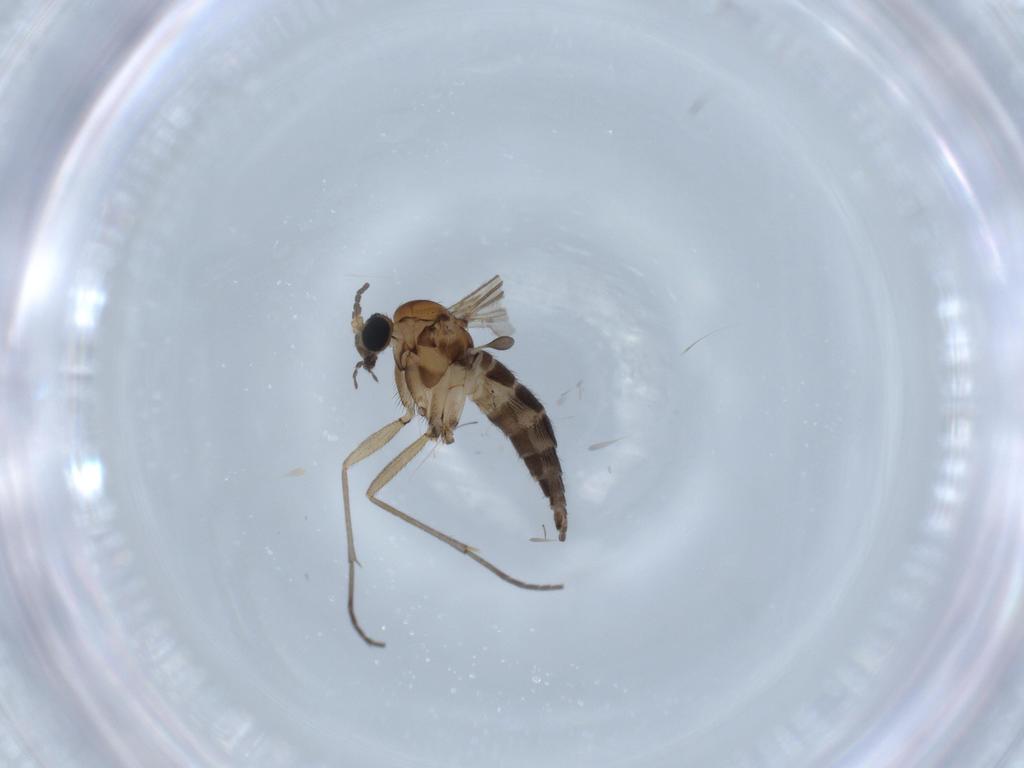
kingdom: Animalia
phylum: Arthropoda
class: Insecta
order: Diptera
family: Sciaridae
